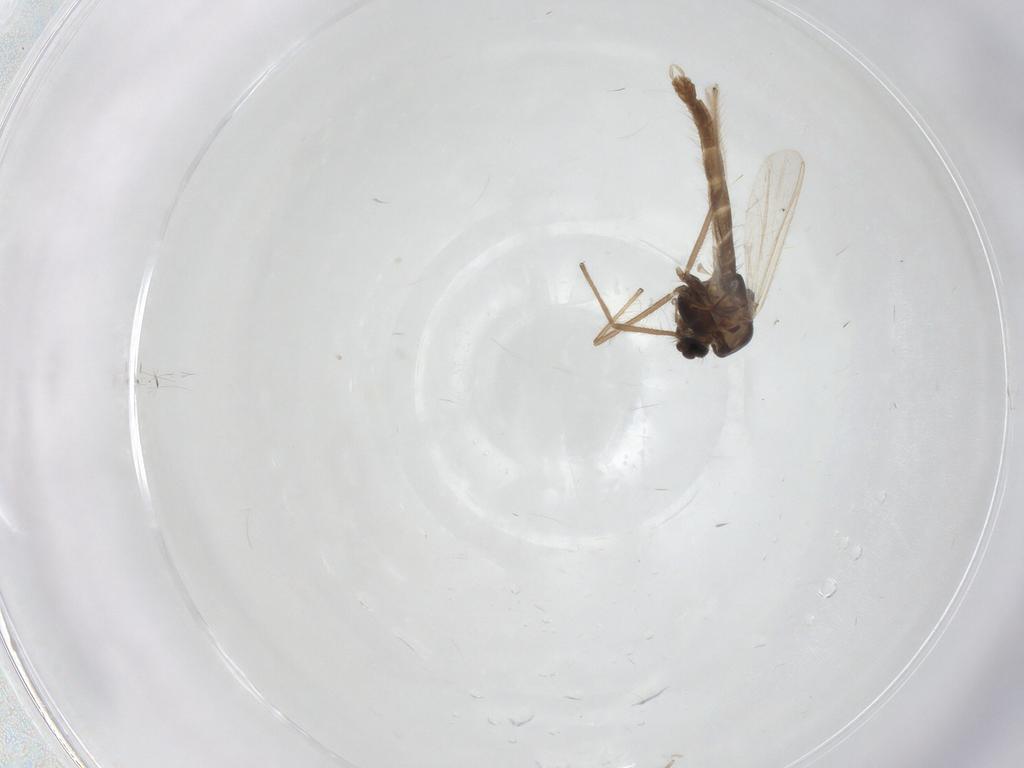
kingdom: Animalia
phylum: Arthropoda
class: Insecta
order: Diptera
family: Chironomidae
